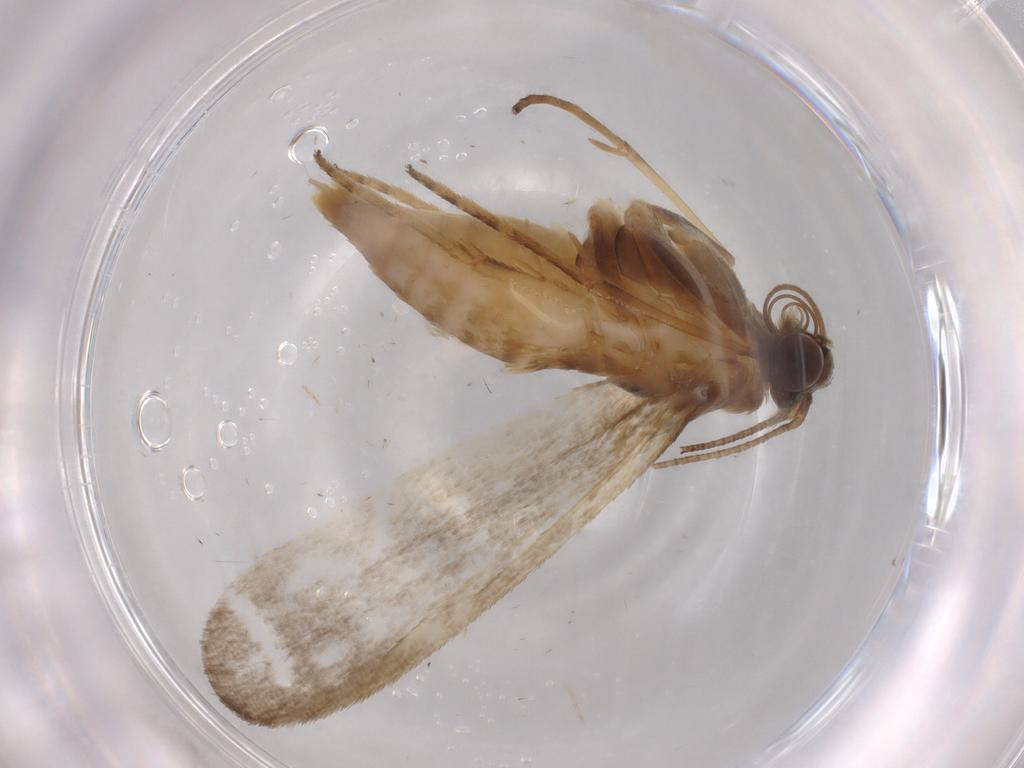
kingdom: Animalia
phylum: Arthropoda
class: Insecta
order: Lepidoptera
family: Noctuidae
